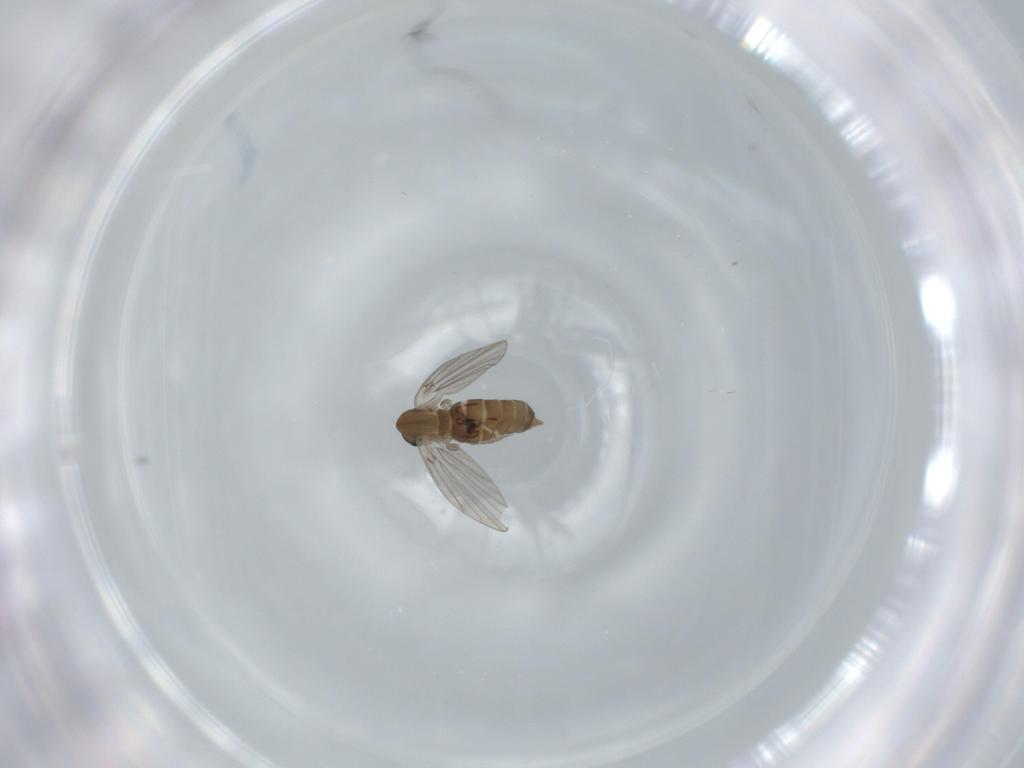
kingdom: Animalia
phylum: Arthropoda
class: Insecta
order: Diptera
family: Cecidomyiidae
